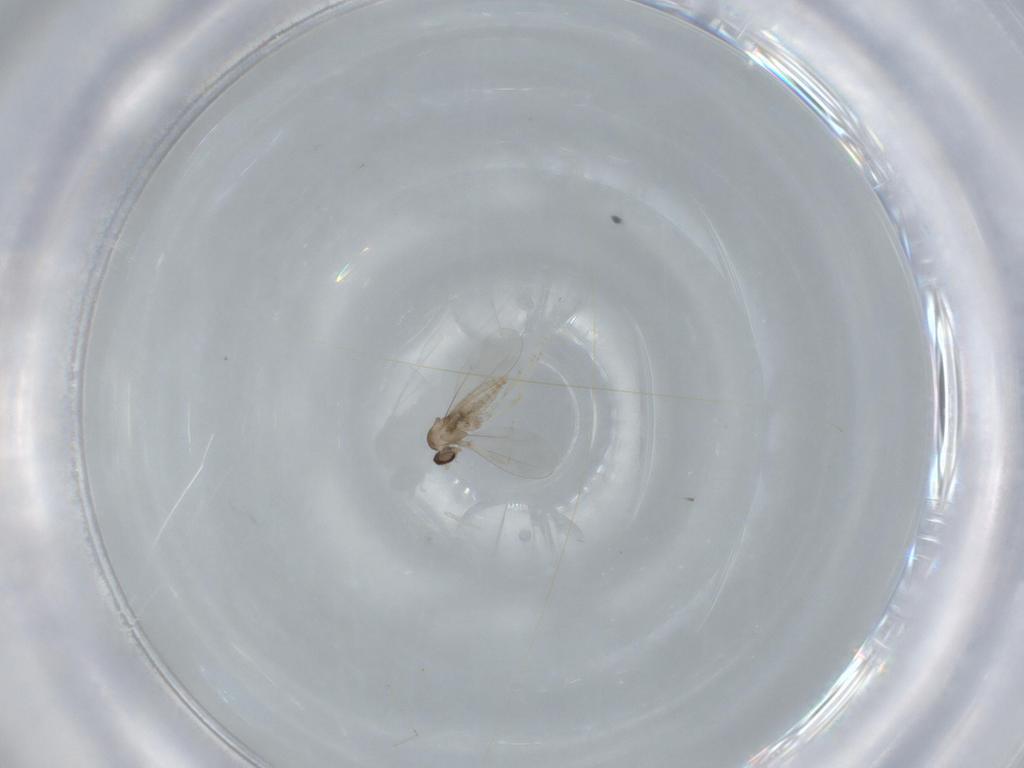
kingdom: Animalia
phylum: Arthropoda
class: Insecta
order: Diptera
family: Cecidomyiidae
